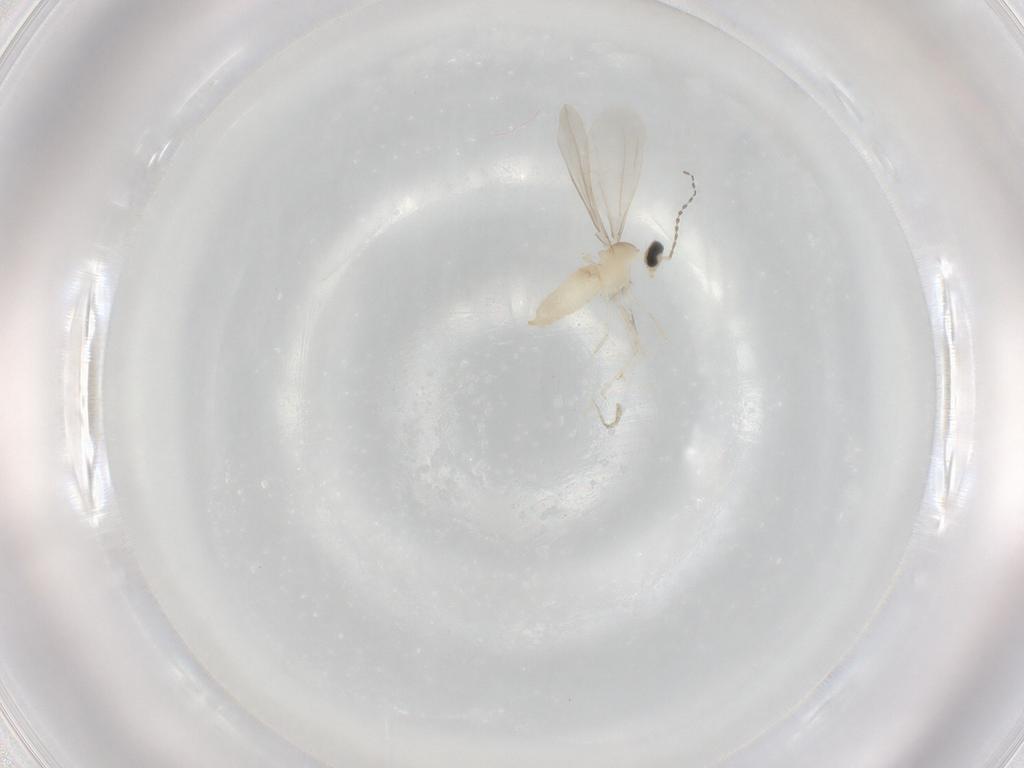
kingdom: Animalia
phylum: Arthropoda
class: Insecta
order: Diptera
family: Cecidomyiidae
